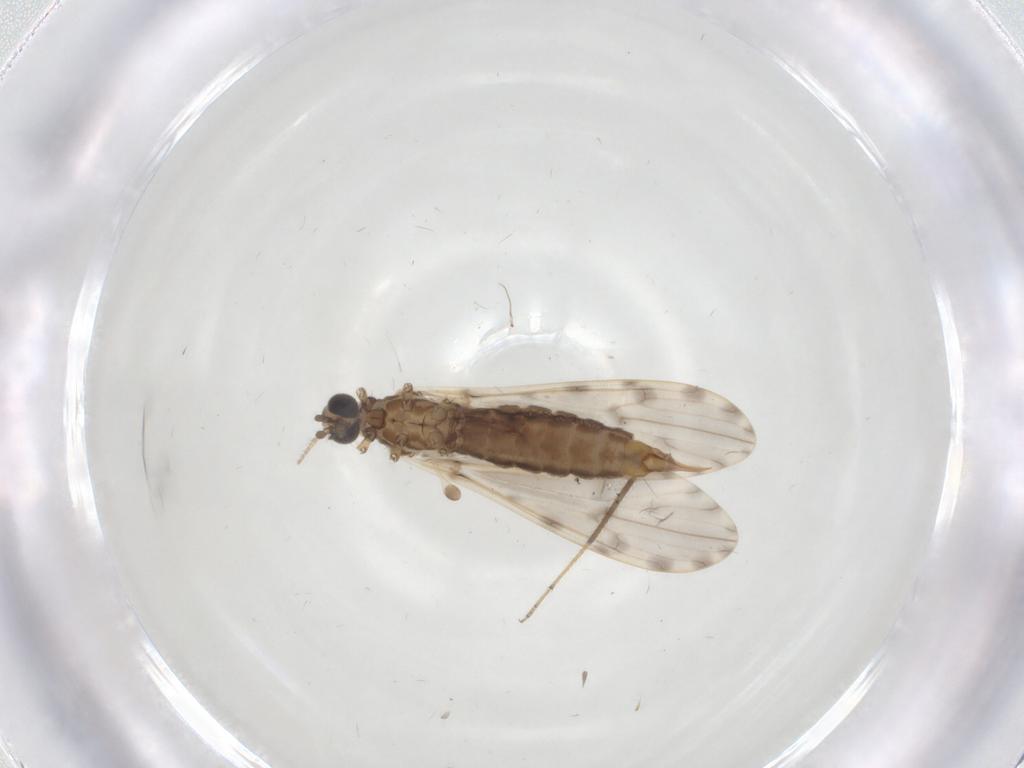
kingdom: Animalia
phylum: Arthropoda
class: Insecta
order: Diptera
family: Limoniidae
